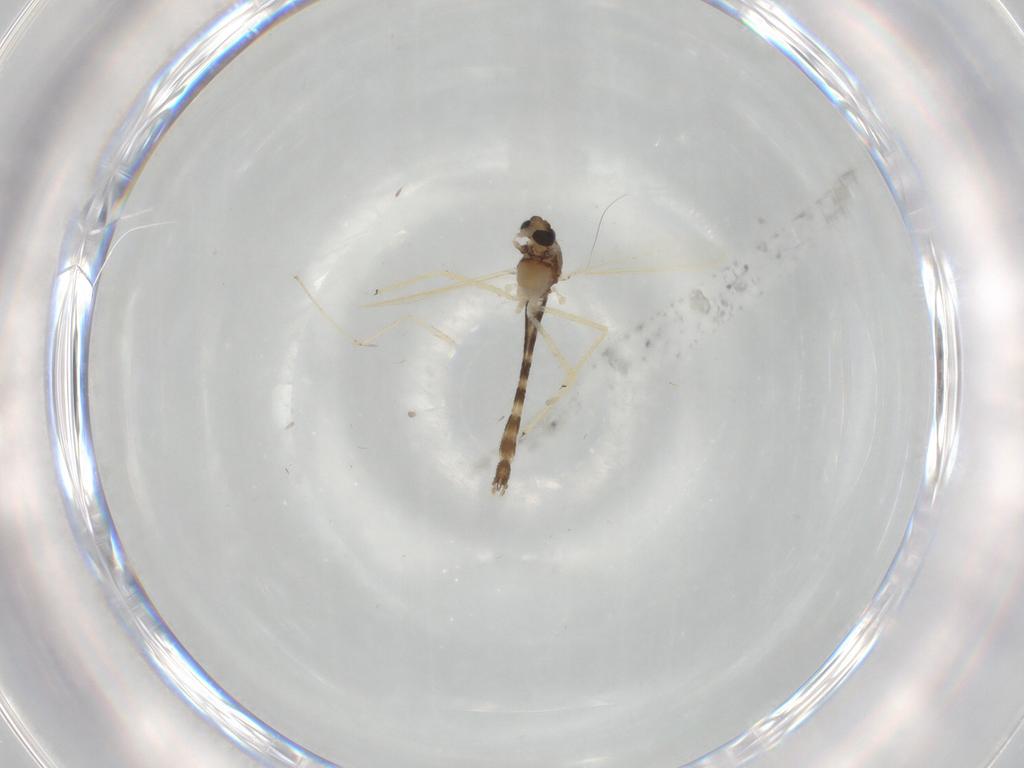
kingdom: Animalia
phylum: Arthropoda
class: Insecta
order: Diptera
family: Chironomidae
